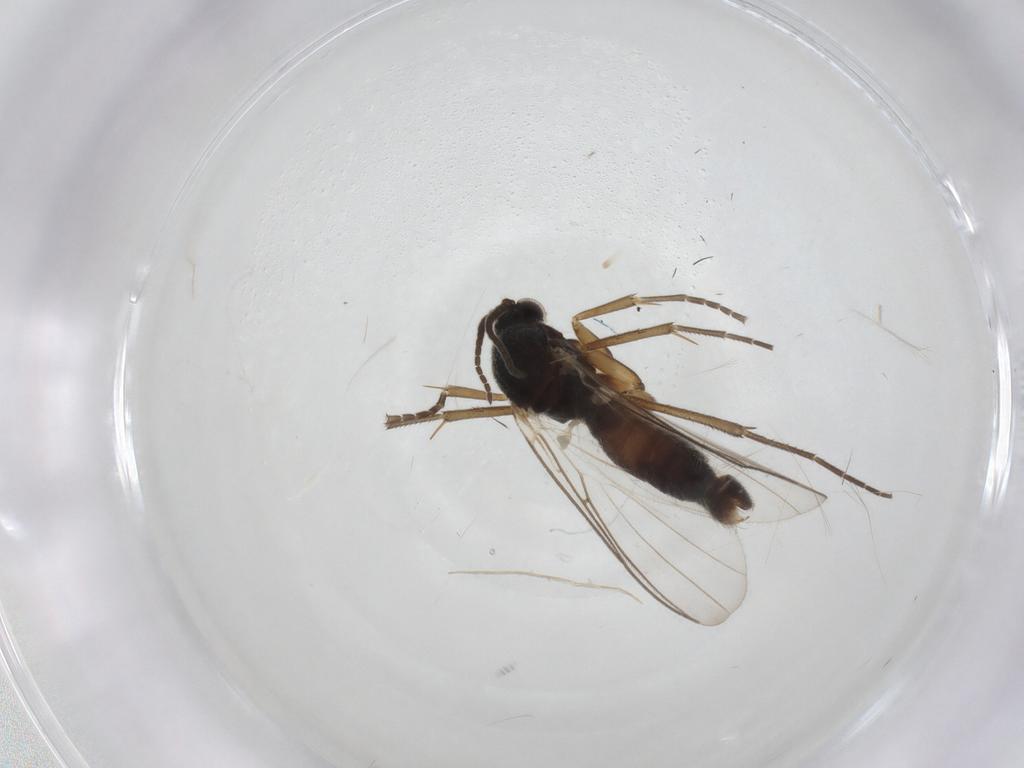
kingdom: Animalia
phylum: Arthropoda
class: Insecta
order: Diptera
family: Mycetophilidae
